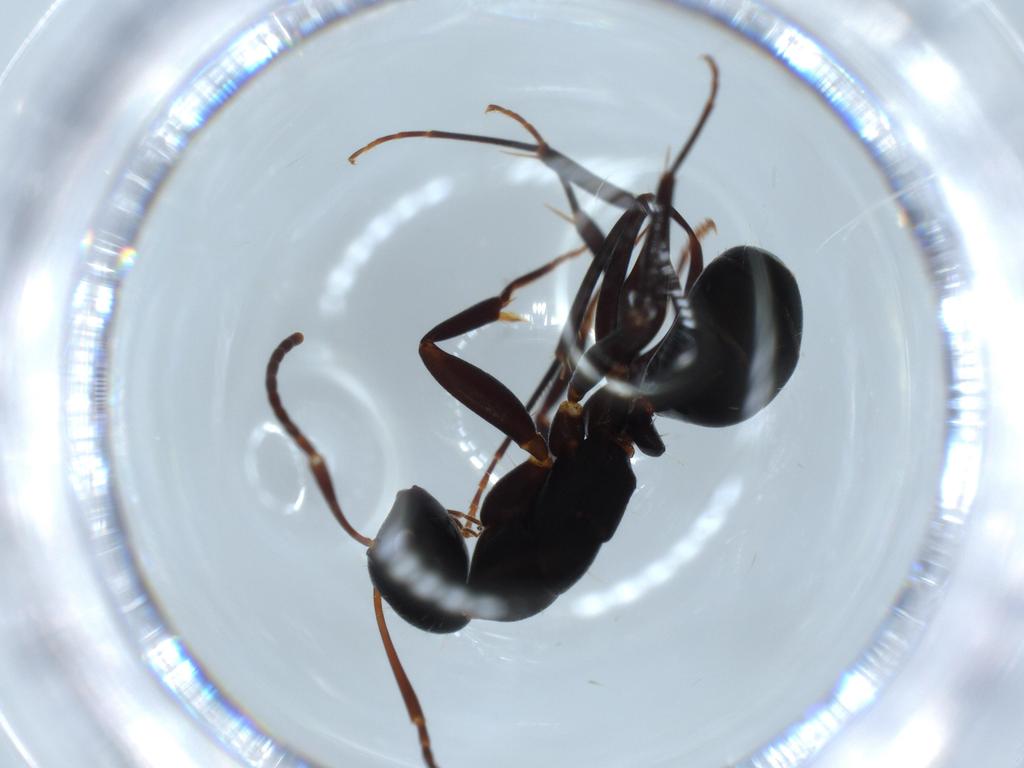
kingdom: Animalia
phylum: Arthropoda
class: Insecta
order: Hymenoptera
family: Formicidae
